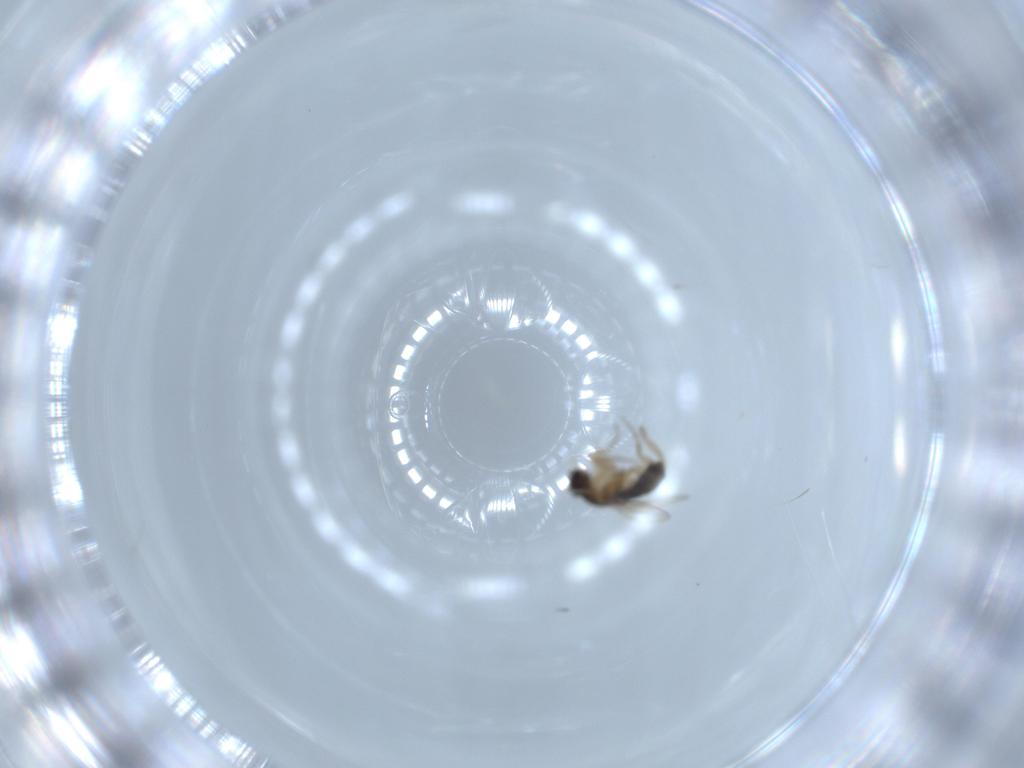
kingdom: Animalia
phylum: Arthropoda
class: Insecta
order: Diptera
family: Phoridae
